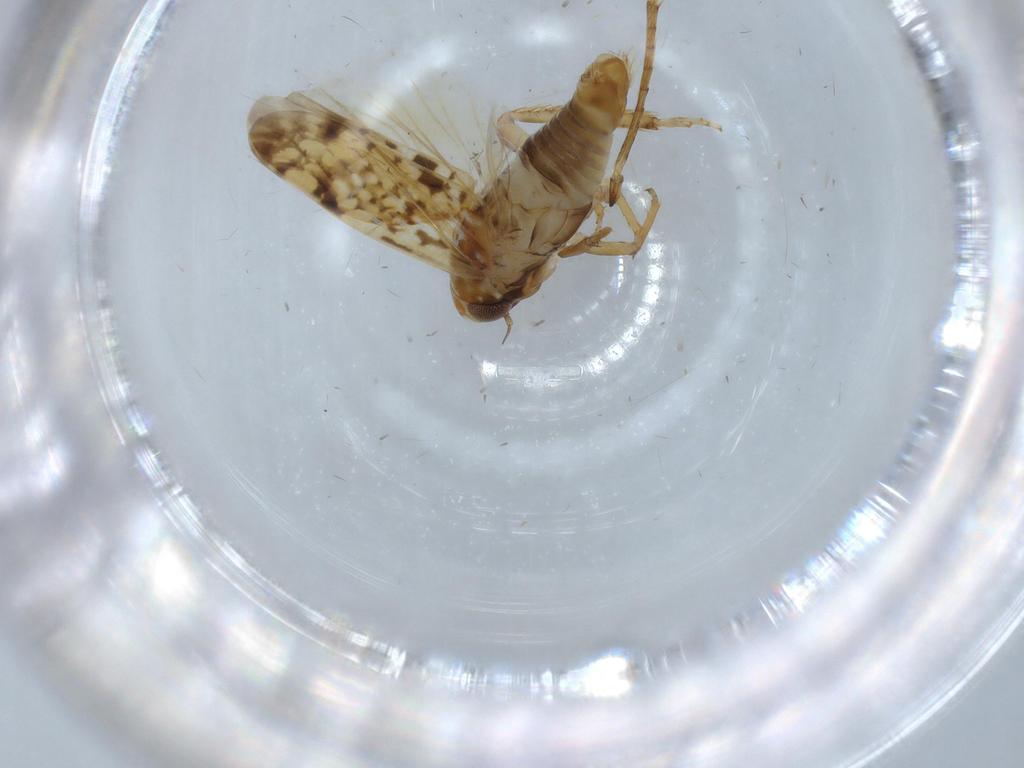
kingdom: Animalia
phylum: Arthropoda
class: Insecta
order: Hemiptera
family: Cicadellidae
